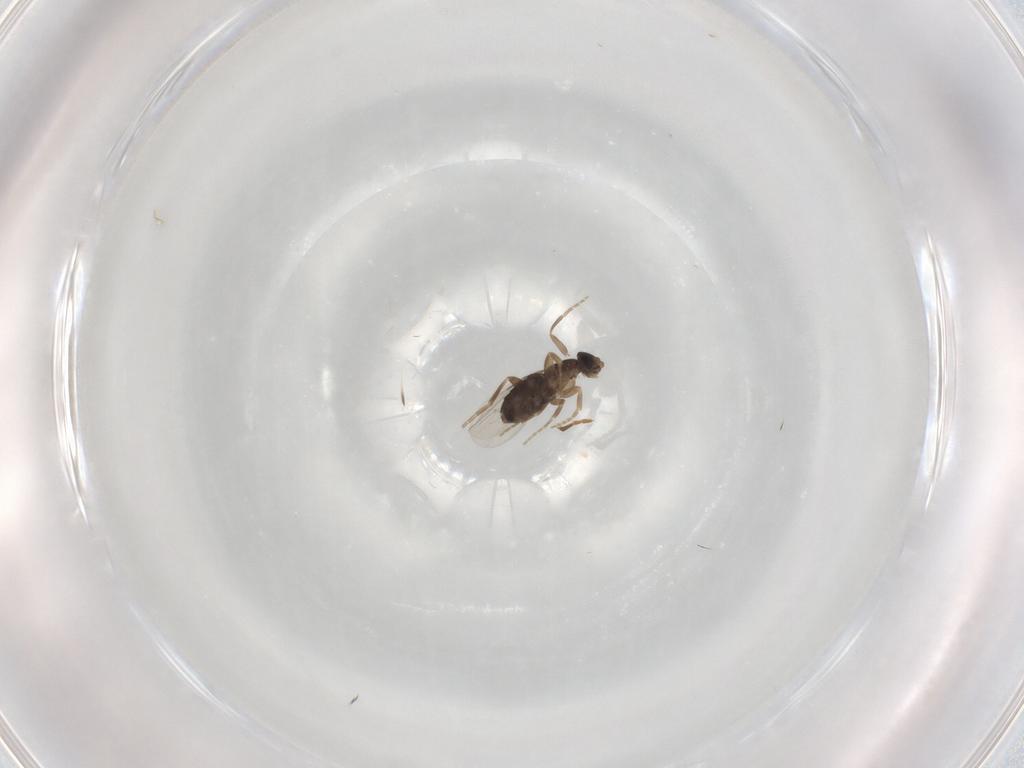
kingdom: Animalia
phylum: Arthropoda
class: Insecta
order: Diptera
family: Phoridae
